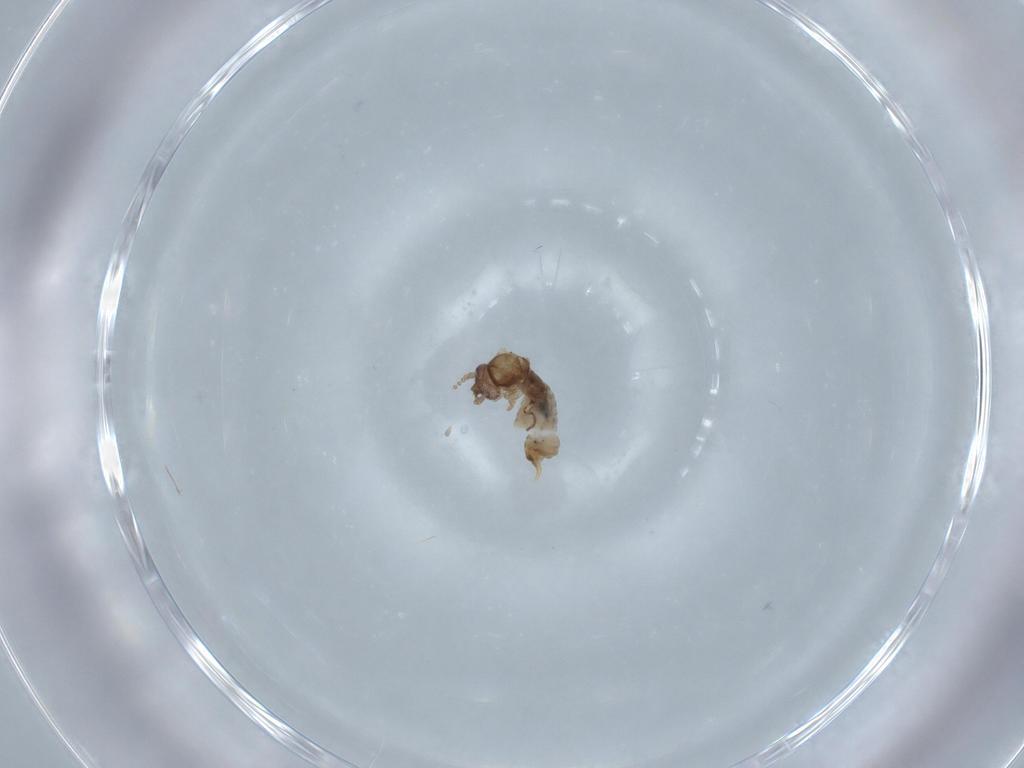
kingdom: Animalia
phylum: Arthropoda
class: Insecta
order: Diptera
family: Psychodidae
